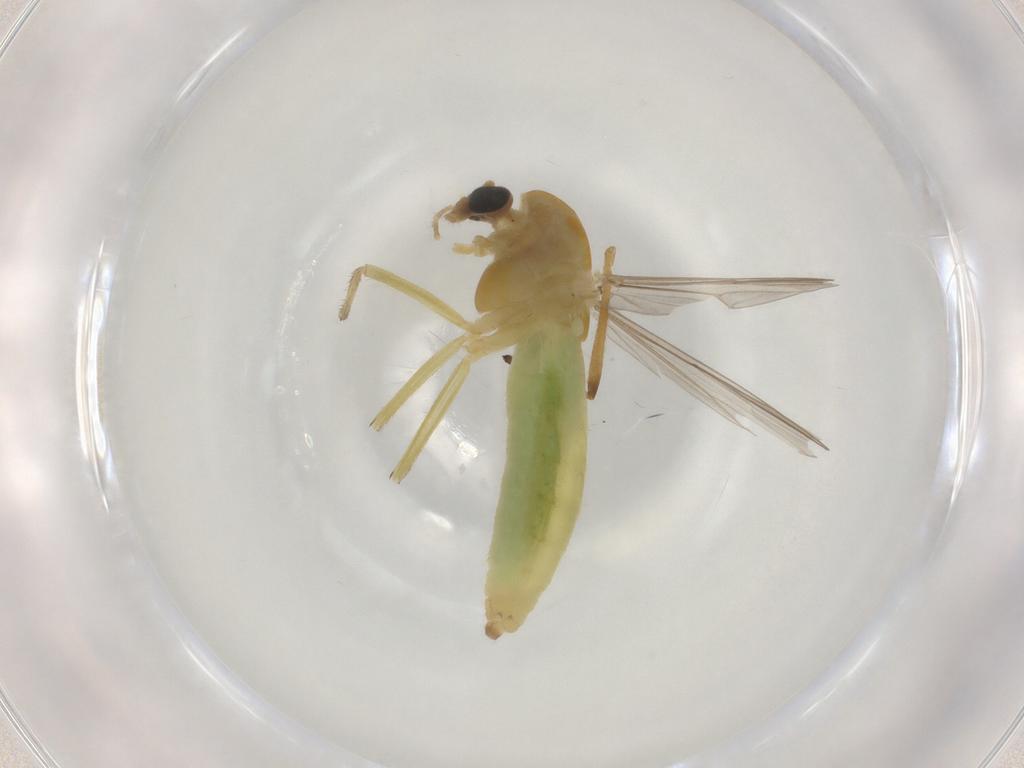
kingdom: Animalia
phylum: Arthropoda
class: Insecta
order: Diptera
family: Chironomidae
